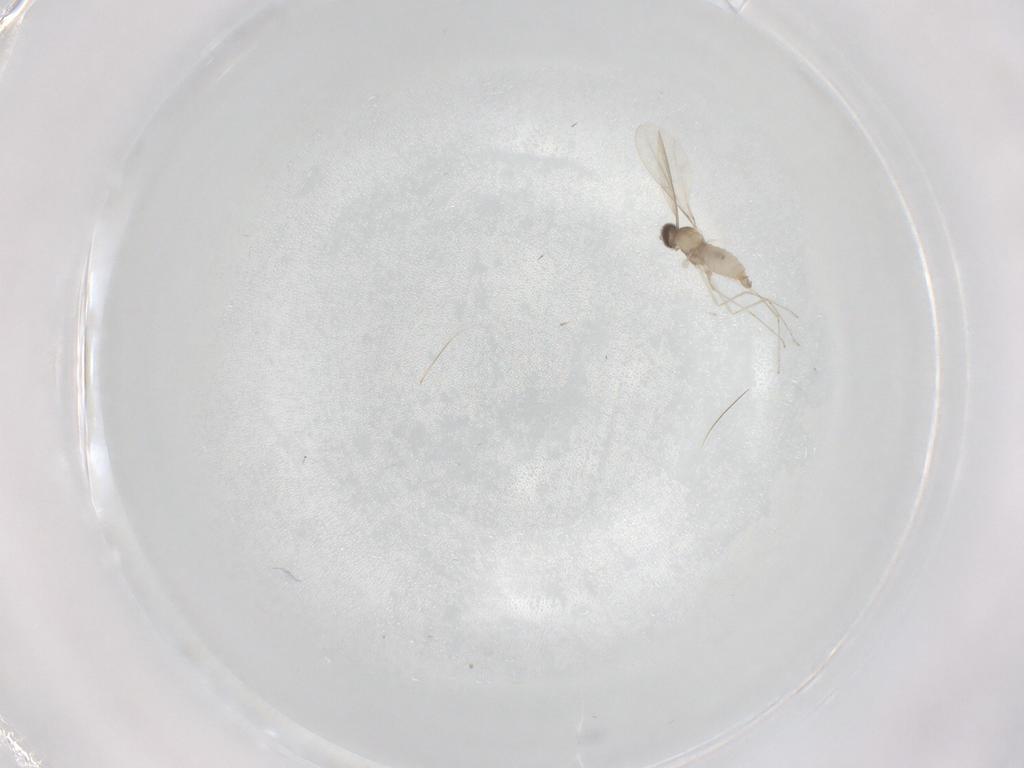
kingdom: Animalia
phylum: Arthropoda
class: Insecta
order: Diptera
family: Cecidomyiidae
